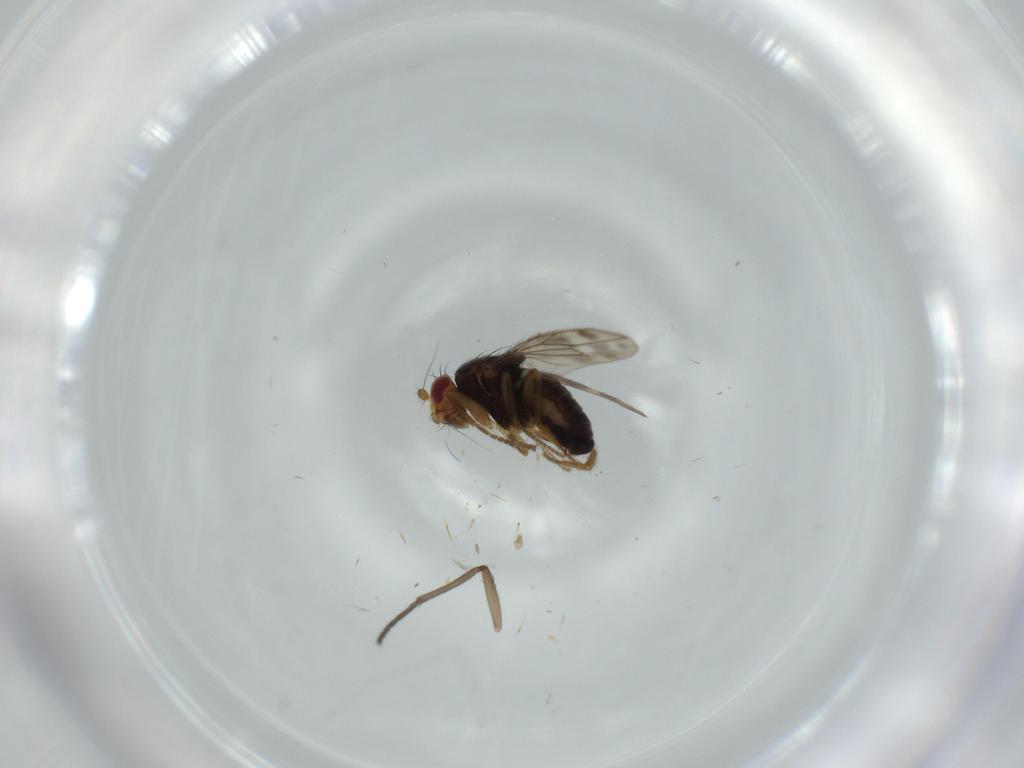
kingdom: Animalia
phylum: Arthropoda
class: Insecta
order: Diptera
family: Sphaeroceridae
